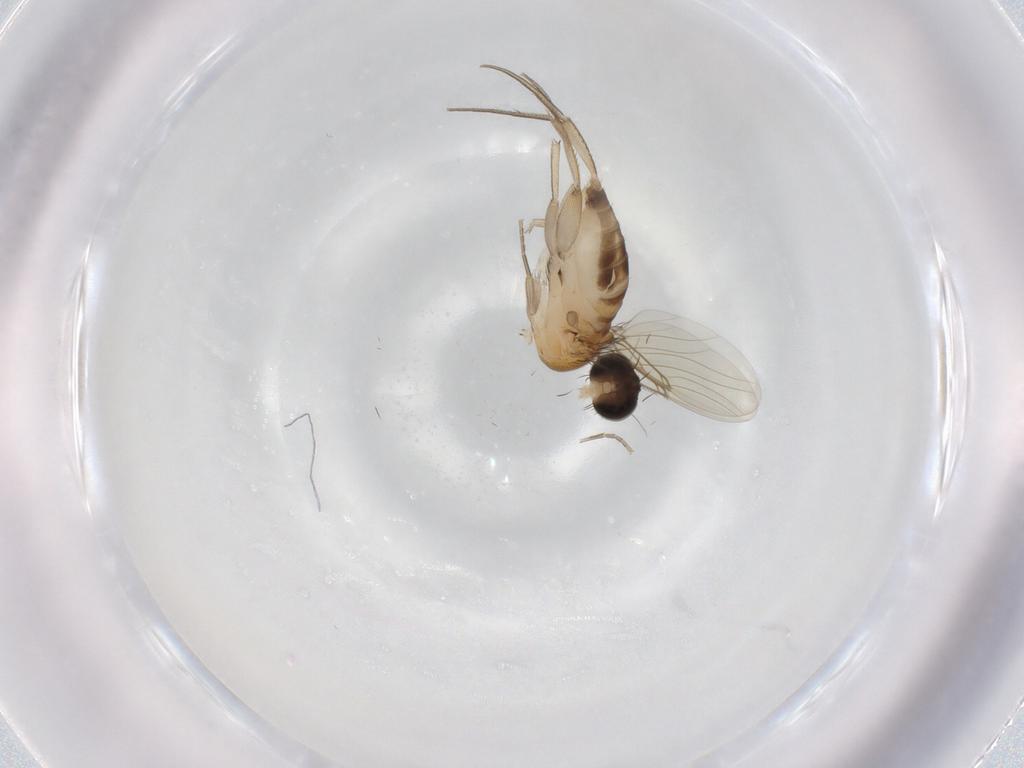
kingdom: Animalia
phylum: Arthropoda
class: Insecta
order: Diptera
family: Phoridae
